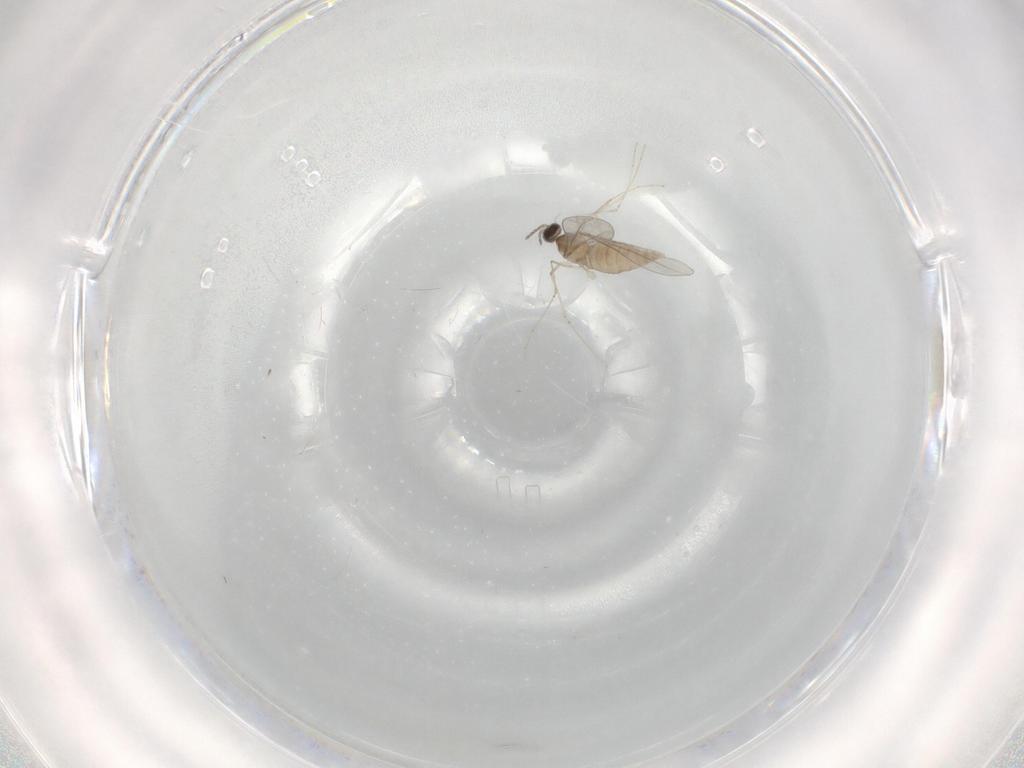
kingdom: Animalia
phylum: Arthropoda
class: Insecta
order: Diptera
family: Cecidomyiidae
